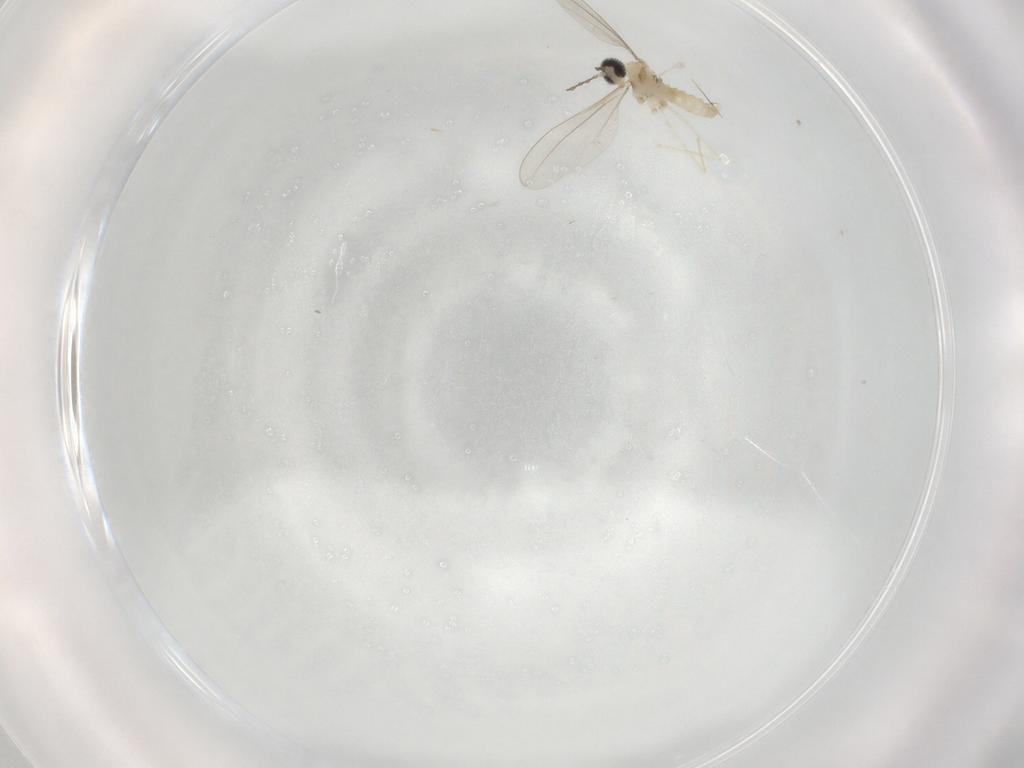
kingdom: Animalia
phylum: Arthropoda
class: Insecta
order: Diptera
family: Cecidomyiidae
